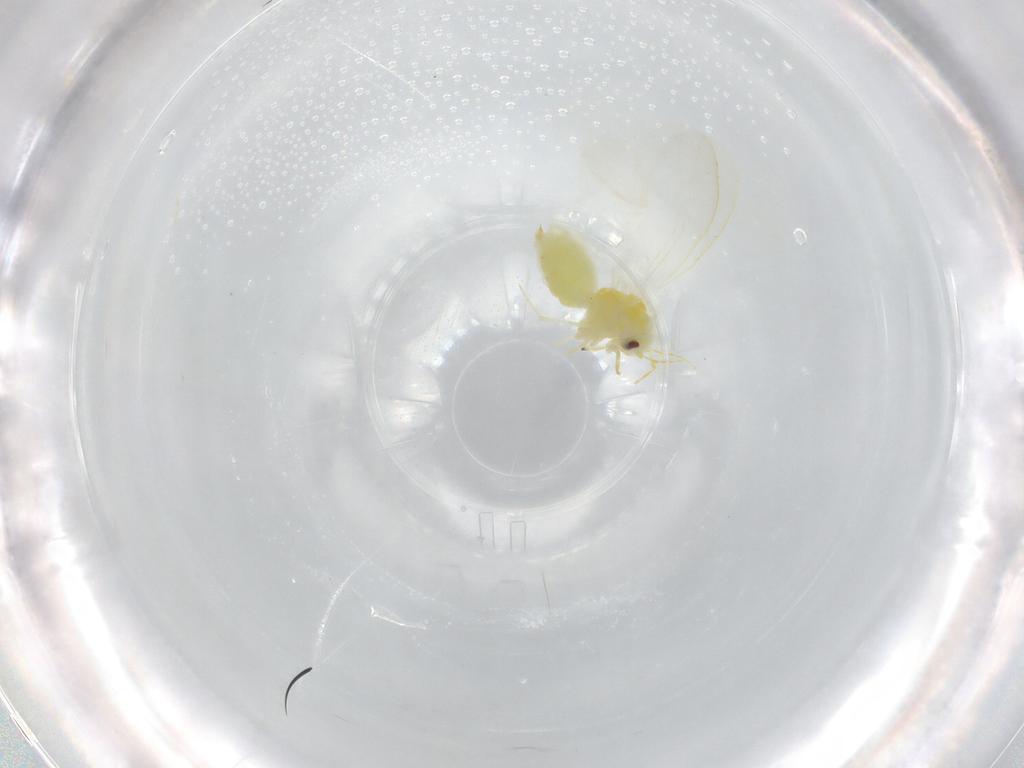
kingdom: Animalia
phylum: Arthropoda
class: Insecta
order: Hemiptera
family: Aleyrodidae
